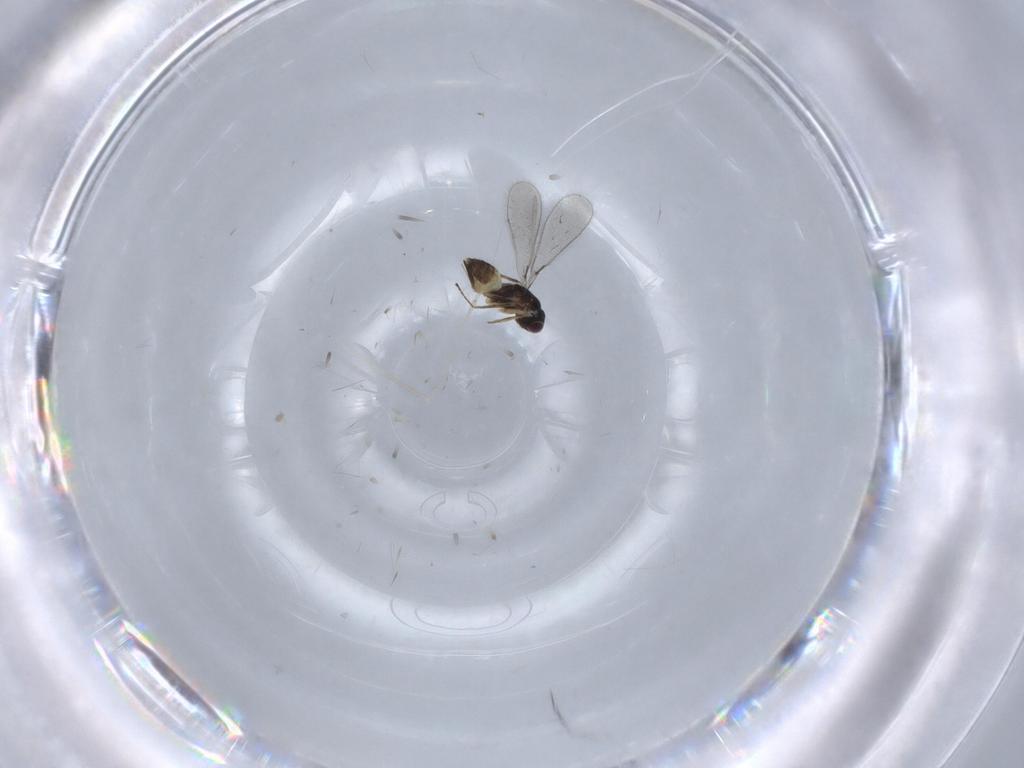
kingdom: Animalia
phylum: Arthropoda
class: Insecta
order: Hymenoptera
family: Mymaridae
